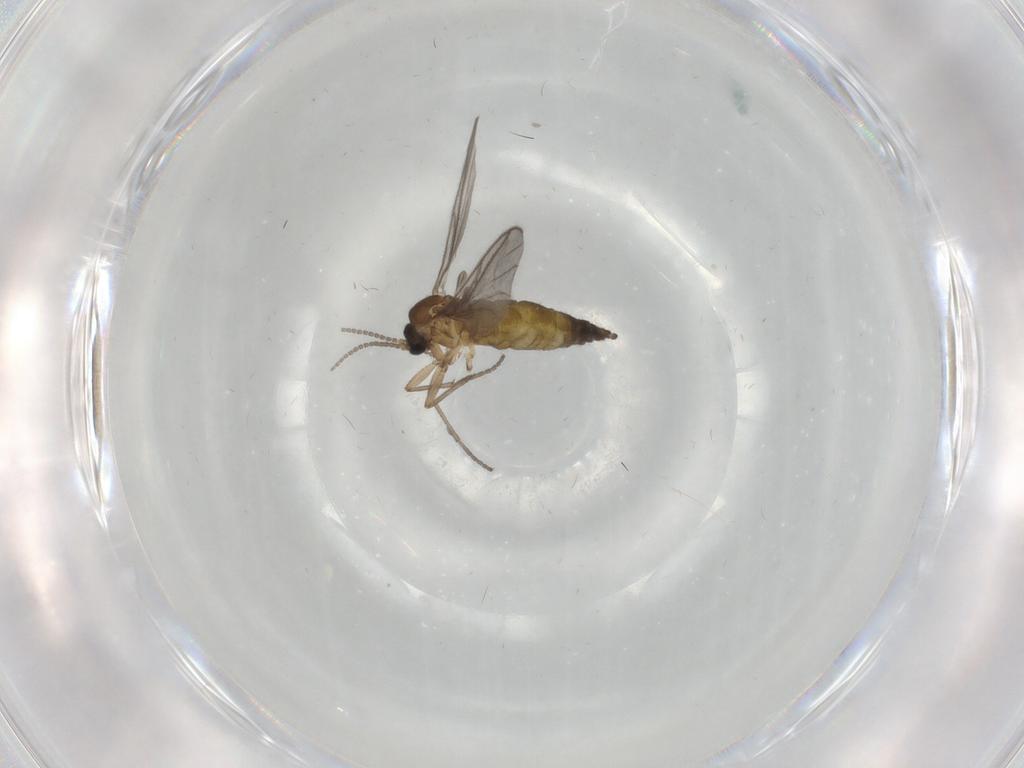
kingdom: Animalia
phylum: Arthropoda
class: Insecta
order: Diptera
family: Sciaridae
